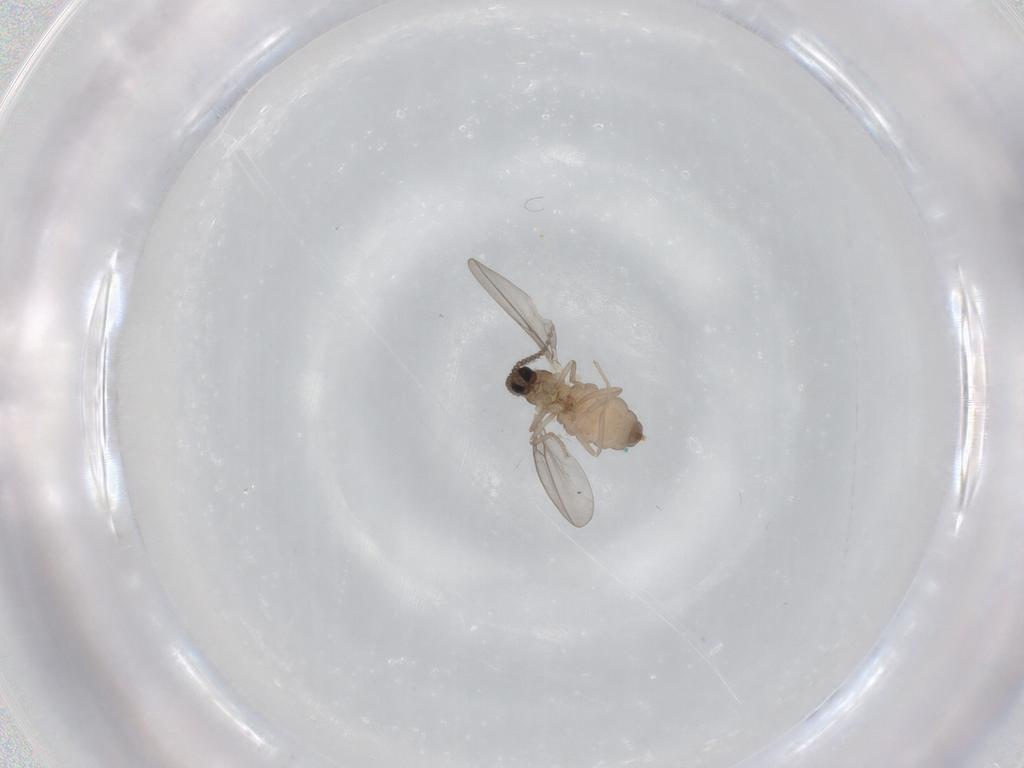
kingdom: Animalia
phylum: Arthropoda
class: Insecta
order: Diptera
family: Cecidomyiidae
